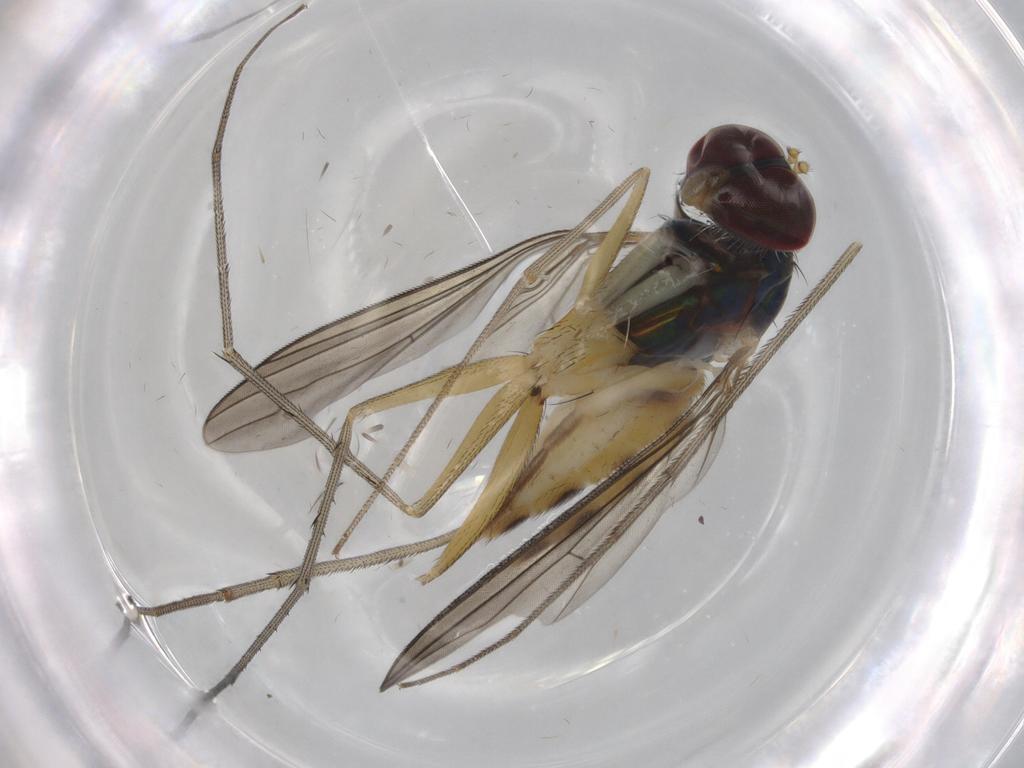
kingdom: Animalia
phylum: Arthropoda
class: Insecta
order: Diptera
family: Dolichopodidae
